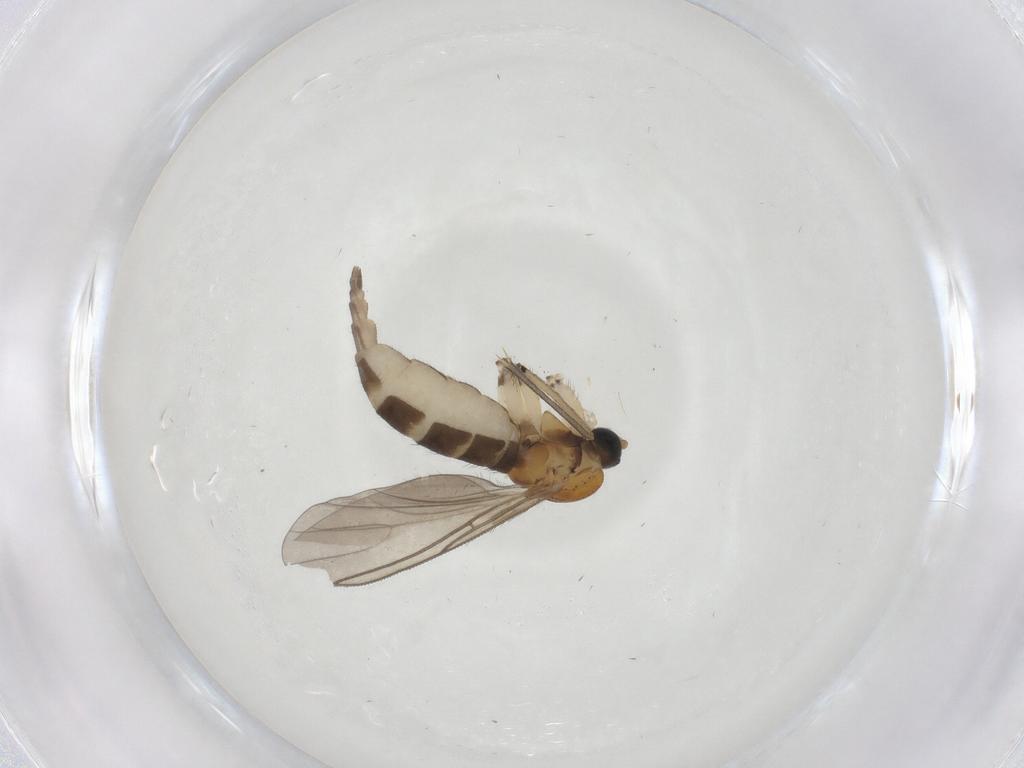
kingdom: Animalia
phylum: Arthropoda
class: Insecta
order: Diptera
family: Sciaridae
